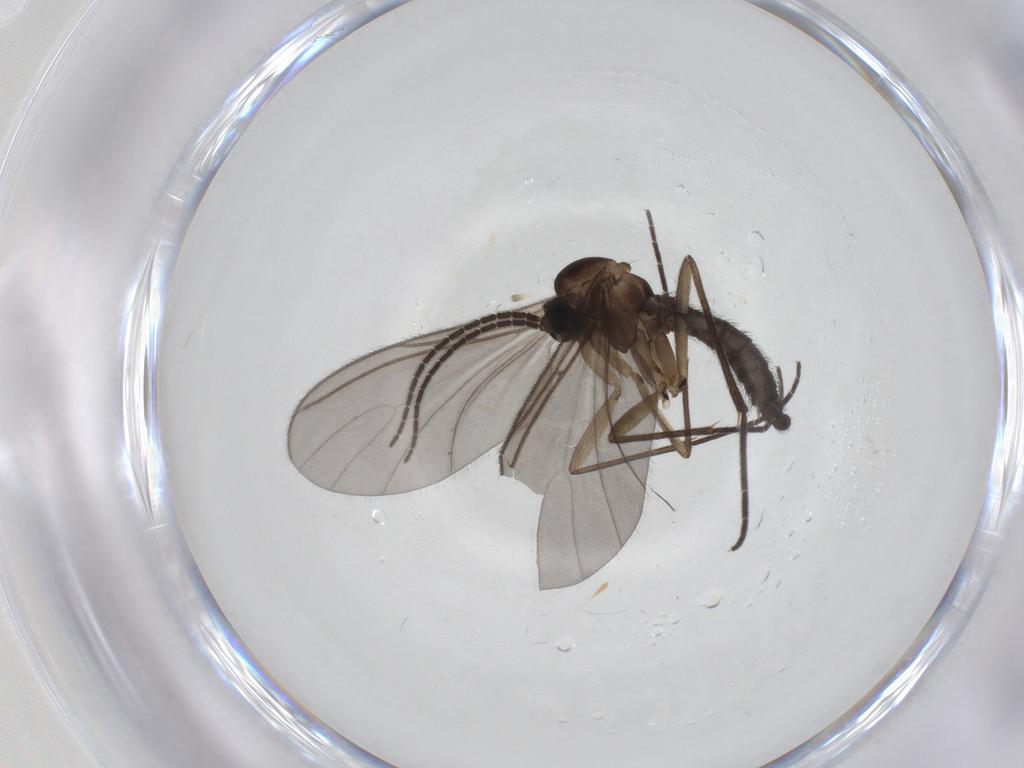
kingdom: Animalia
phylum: Arthropoda
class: Insecta
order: Diptera
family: Sciaridae
